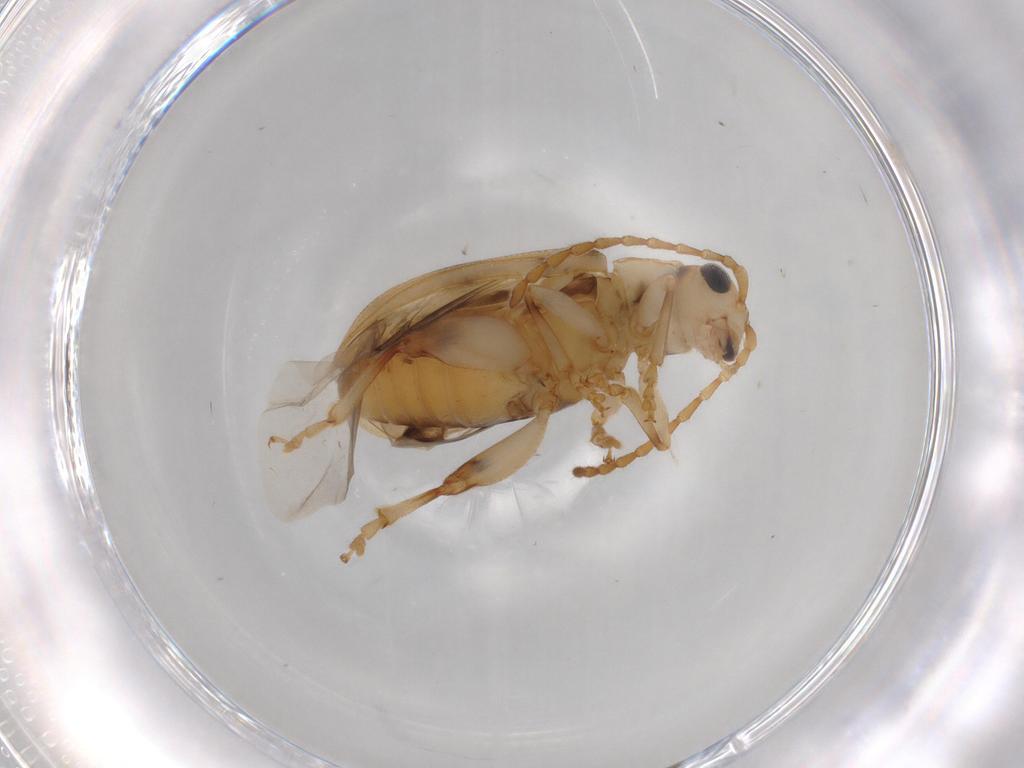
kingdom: Animalia
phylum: Arthropoda
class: Insecta
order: Coleoptera
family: Chrysomelidae
